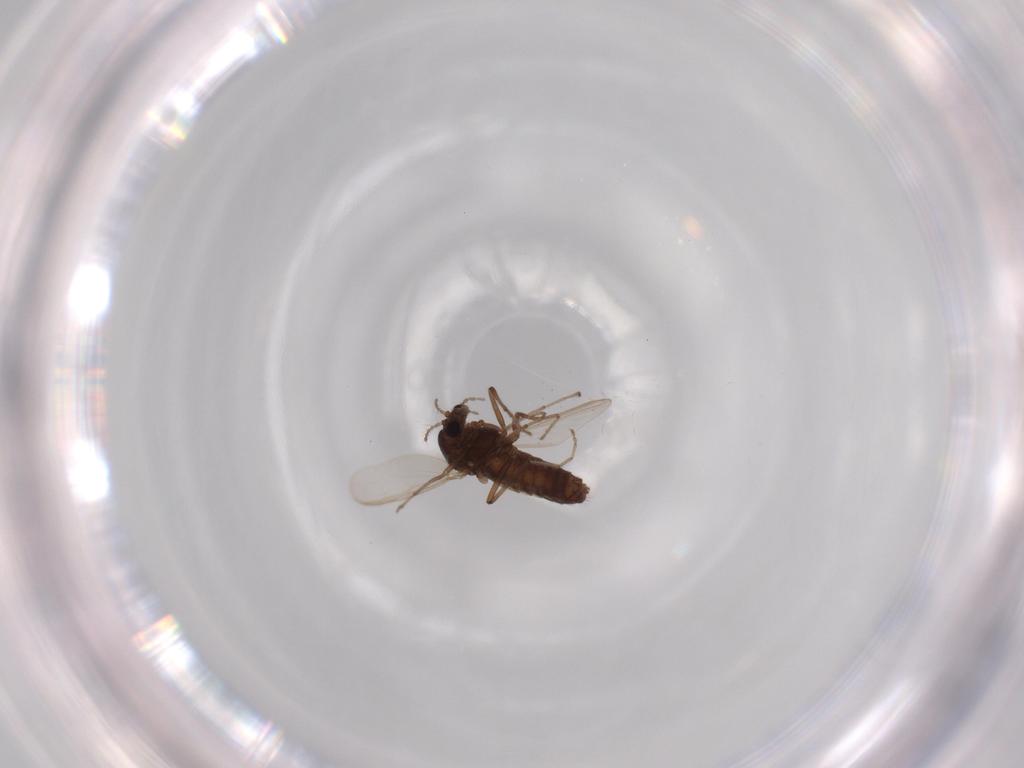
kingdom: Animalia
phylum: Arthropoda
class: Insecta
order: Diptera
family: Chironomidae
